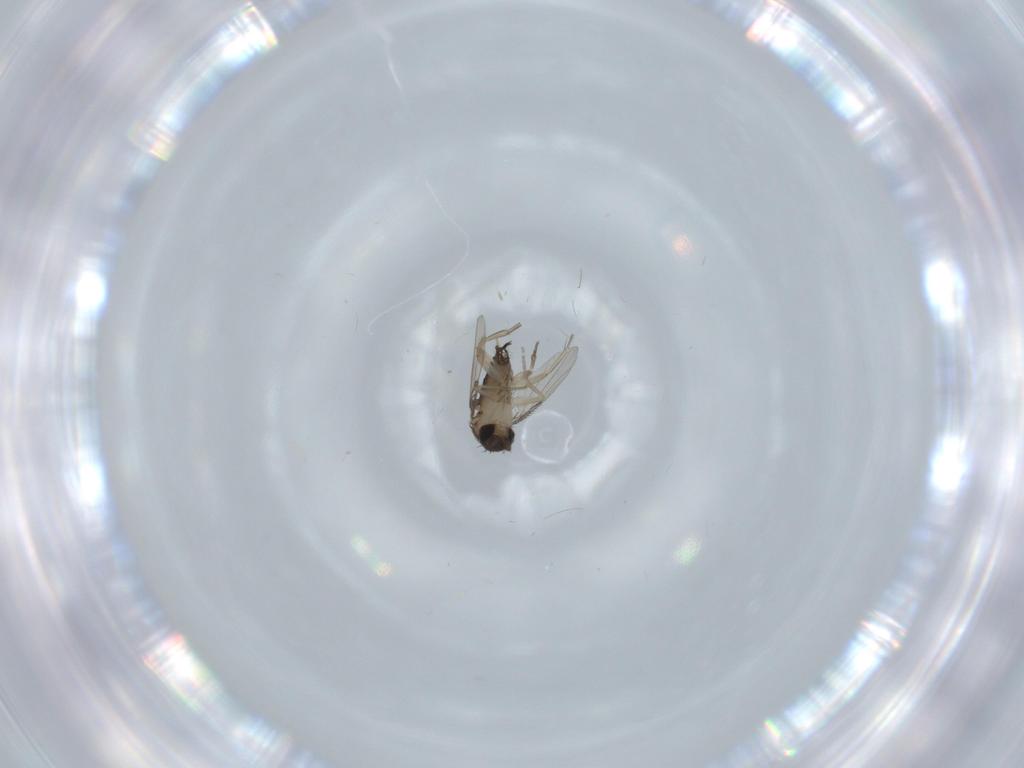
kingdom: Animalia
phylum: Arthropoda
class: Insecta
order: Diptera
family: Phoridae
